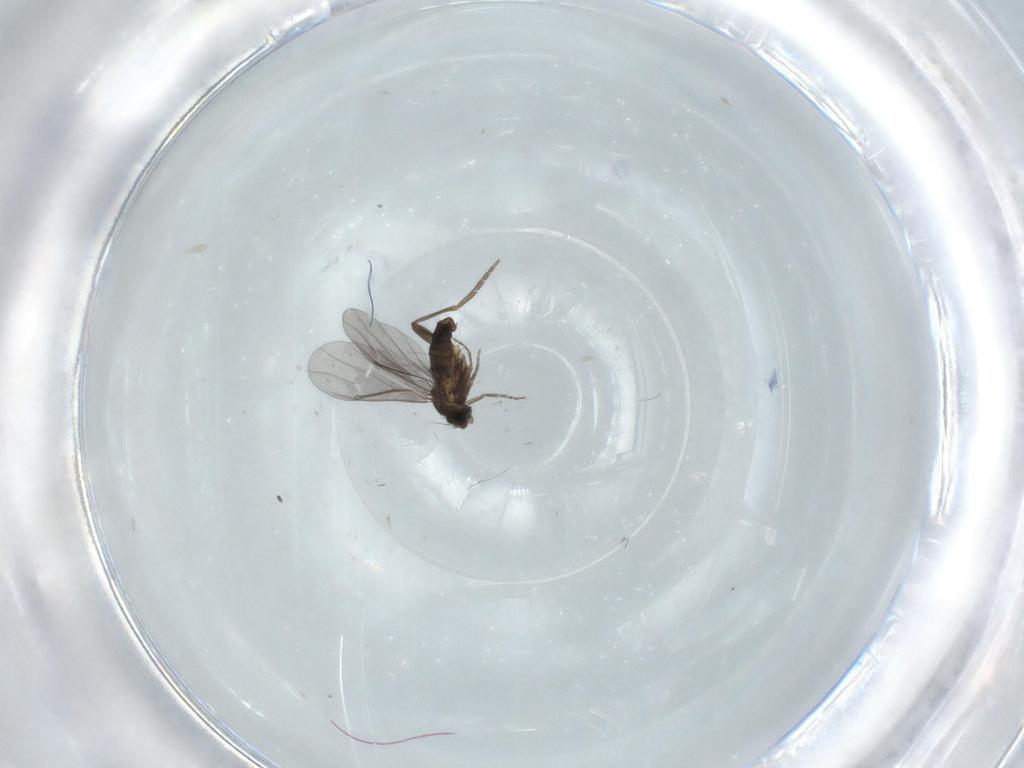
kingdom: Animalia
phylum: Arthropoda
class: Insecta
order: Diptera
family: Phoridae
